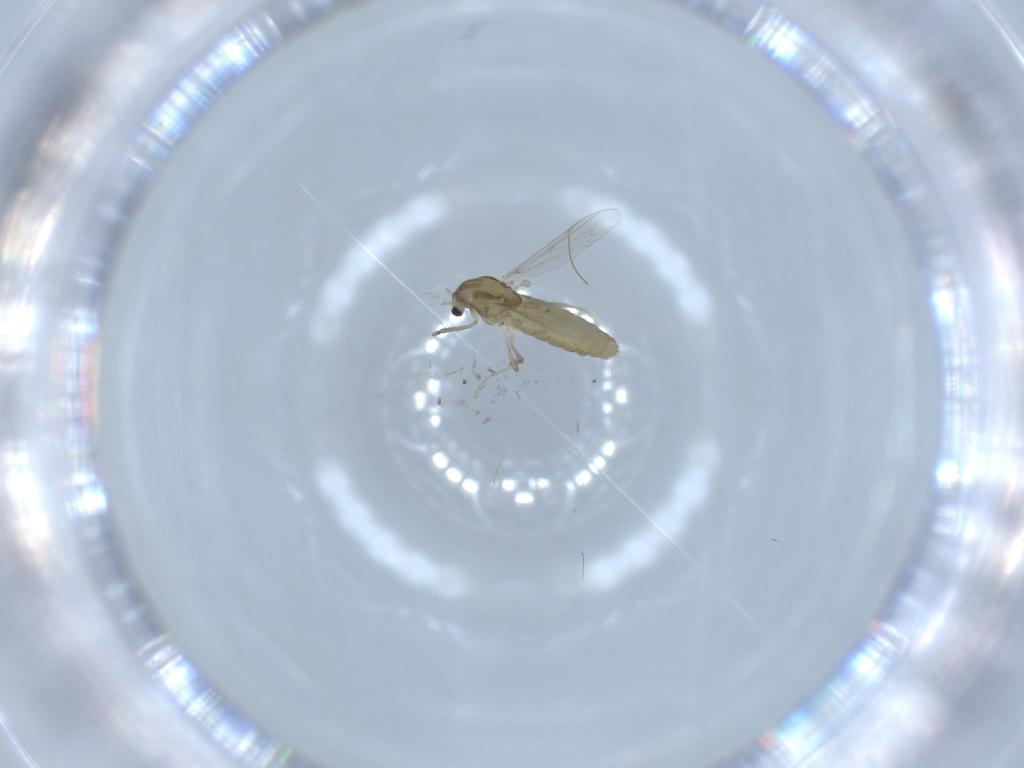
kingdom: Animalia
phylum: Arthropoda
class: Insecta
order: Diptera
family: Chironomidae
